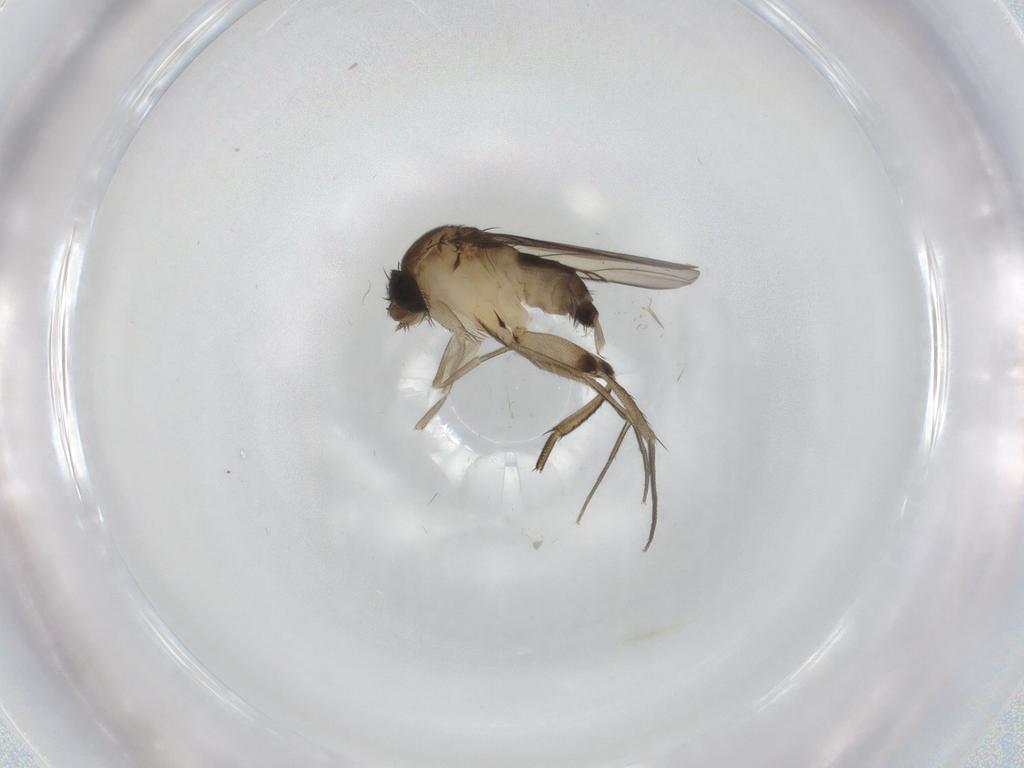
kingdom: Animalia
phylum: Arthropoda
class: Insecta
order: Diptera
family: Phoridae
